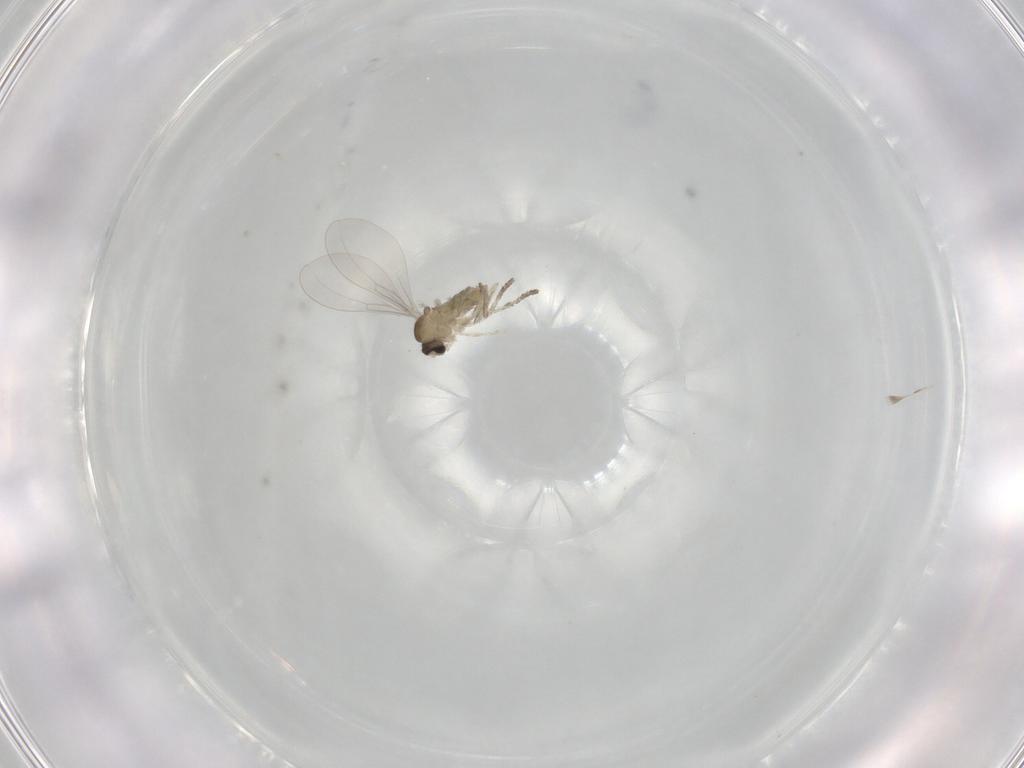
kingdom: Animalia
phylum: Arthropoda
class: Insecta
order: Diptera
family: Cecidomyiidae
